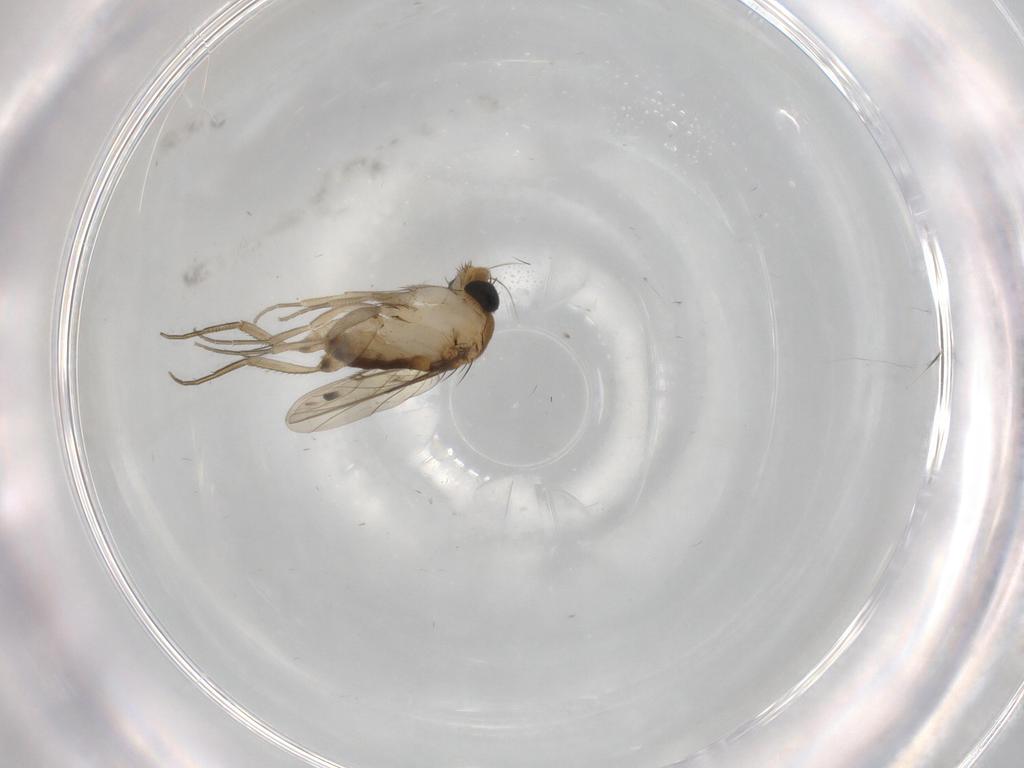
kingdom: Animalia
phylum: Arthropoda
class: Insecta
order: Diptera
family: Phoridae
